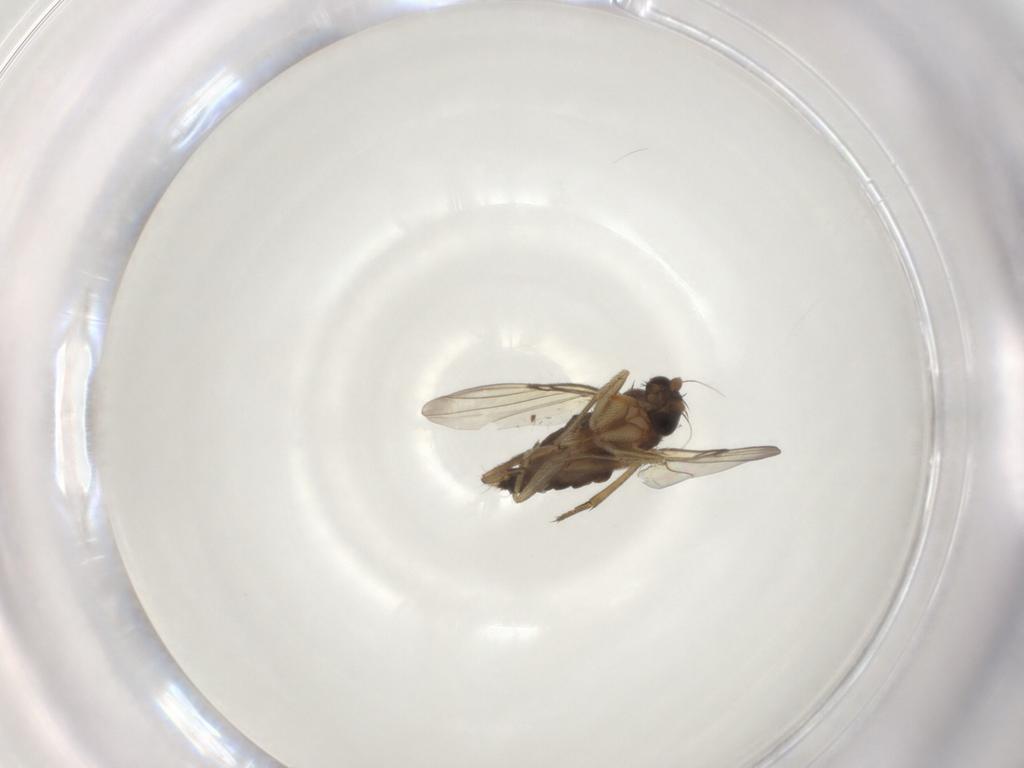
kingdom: Animalia
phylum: Arthropoda
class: Insecta
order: Diptera
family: Phoridae
